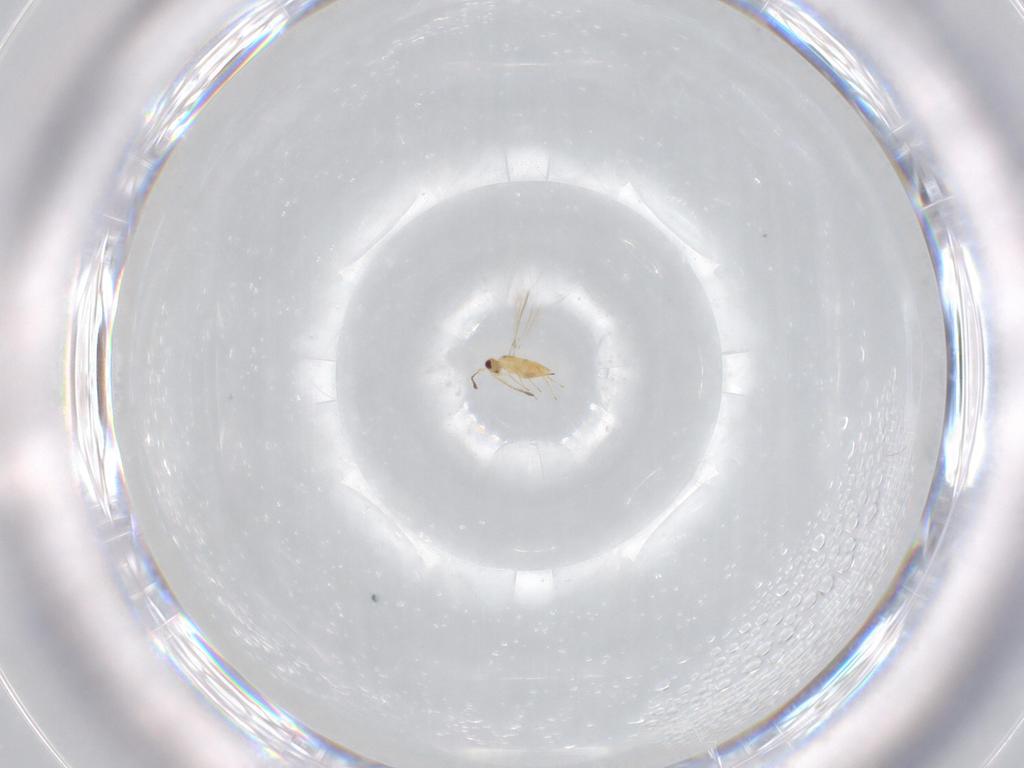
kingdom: Animalia
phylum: Arthropoda
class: Insecta
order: Hymenoptera
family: Mymaridae
